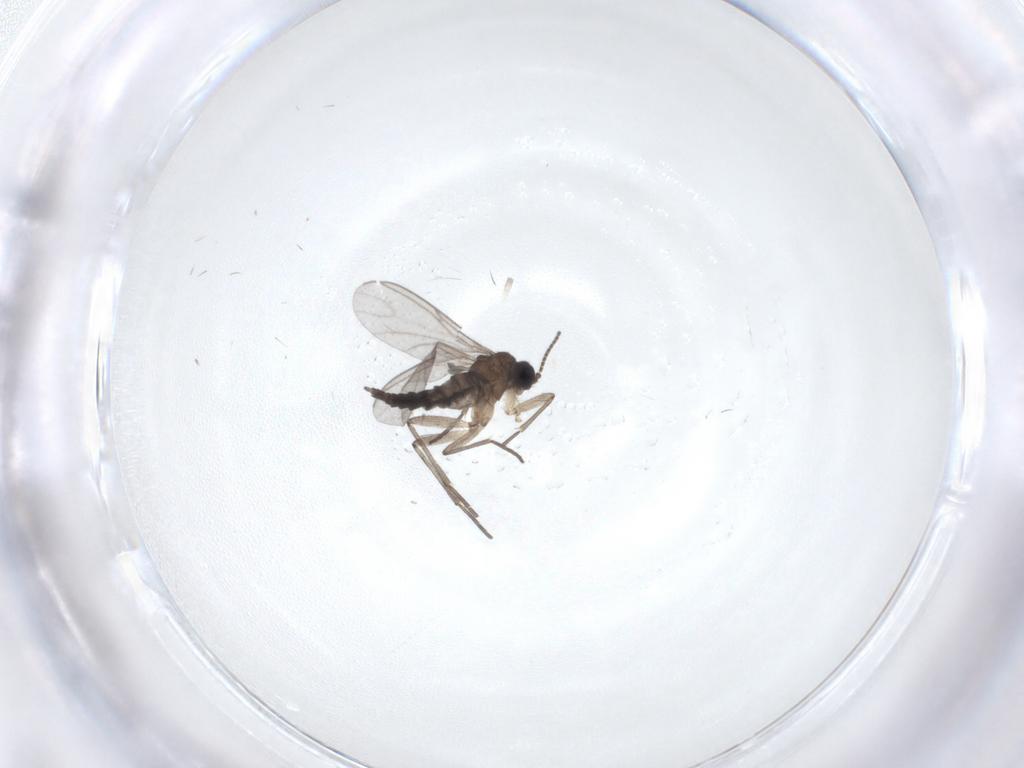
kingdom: Animalia
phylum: Arthropoda
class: Insecta
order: Diptera
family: Sciaridae
